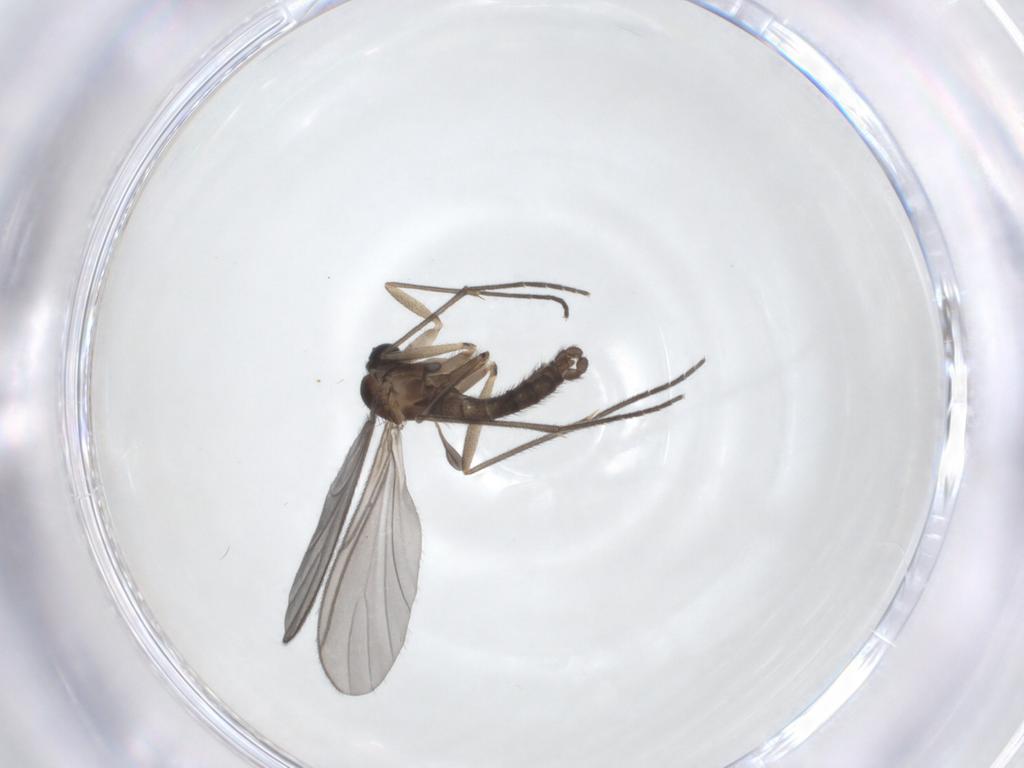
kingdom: Animalia
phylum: Arthropoda
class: Insecta
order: Diptera
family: Sciaridae
